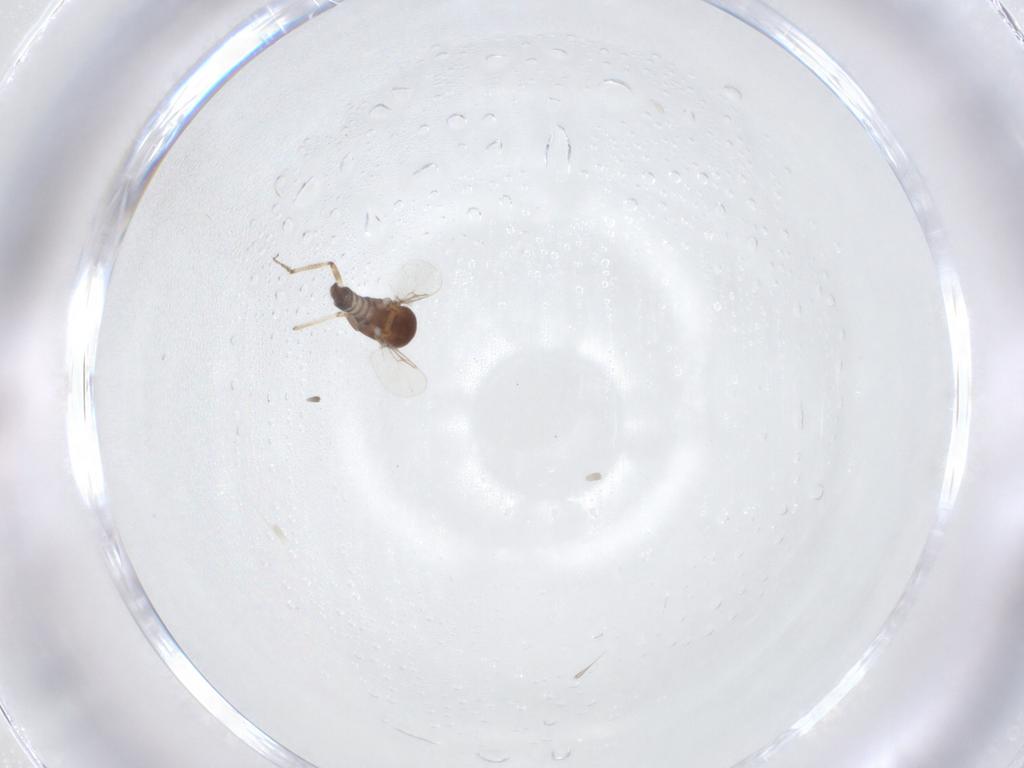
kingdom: Animalia
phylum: Arthropoda
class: Insecta
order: Diptera
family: Ceratopogonidae
